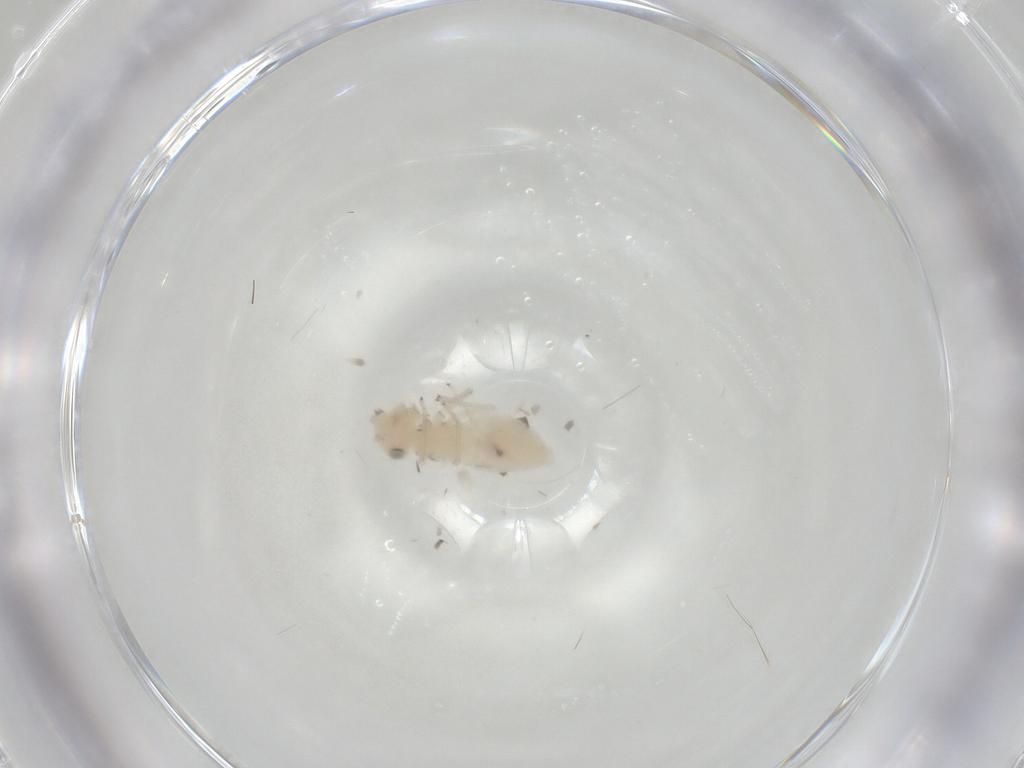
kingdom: Animalia
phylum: Arthropoda
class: Insecta
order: Psocodea
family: Caeciliusidae
